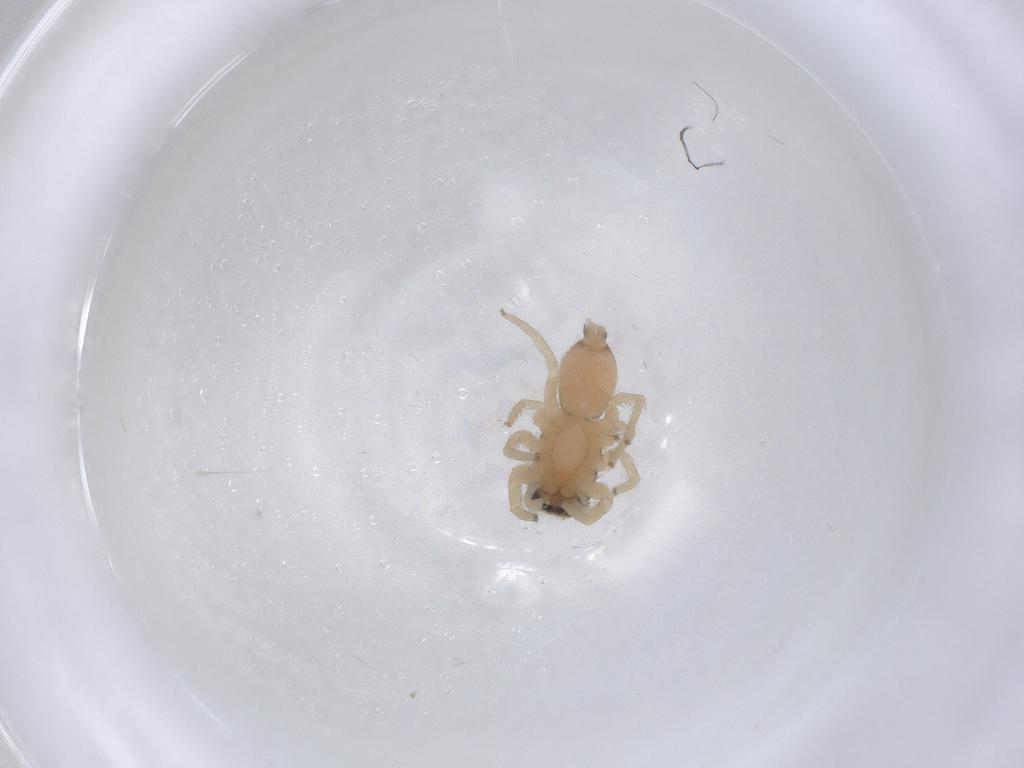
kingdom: Animalia
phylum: Arthropoda
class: Arachnida
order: Araneae
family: Salticidae
